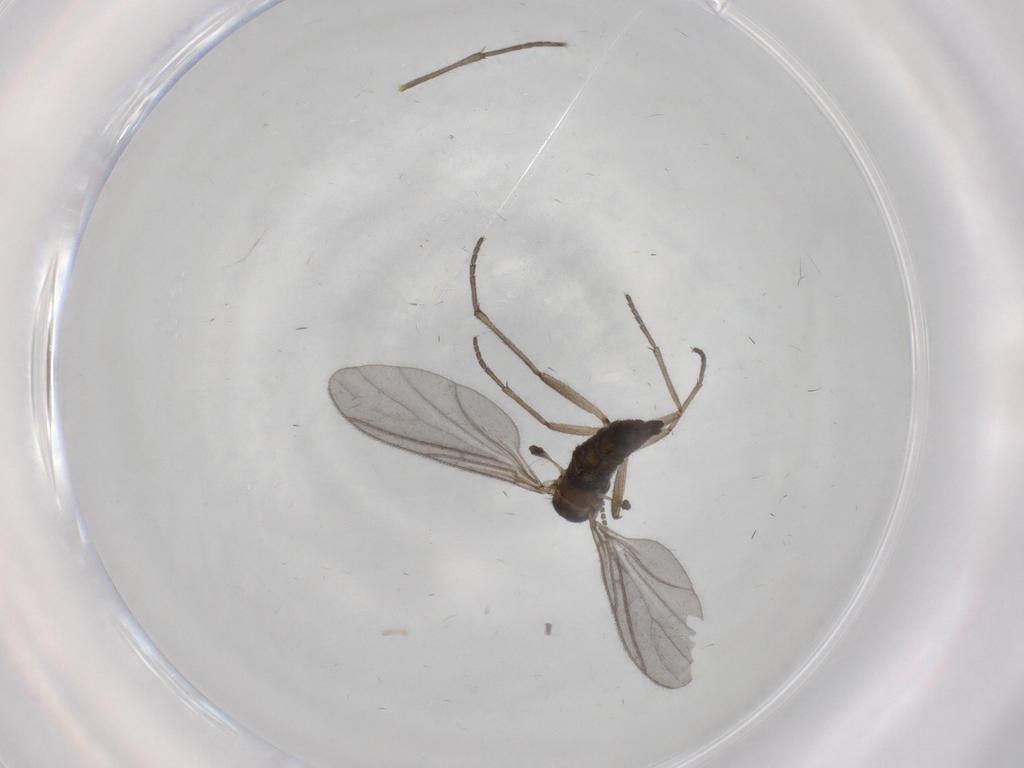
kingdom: Animalia
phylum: Arthropoda
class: Insecta
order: Diptera
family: Sciaridae
